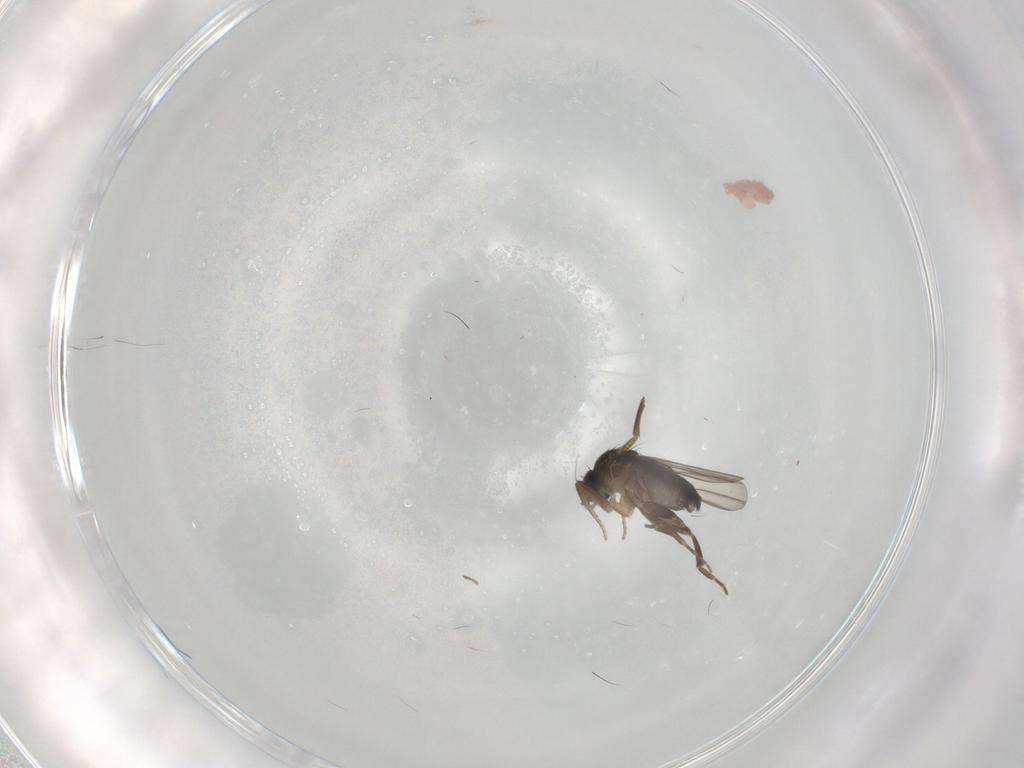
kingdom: Animalia
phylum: Arthropoda
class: Insecta
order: Diptera
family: Phoridae
